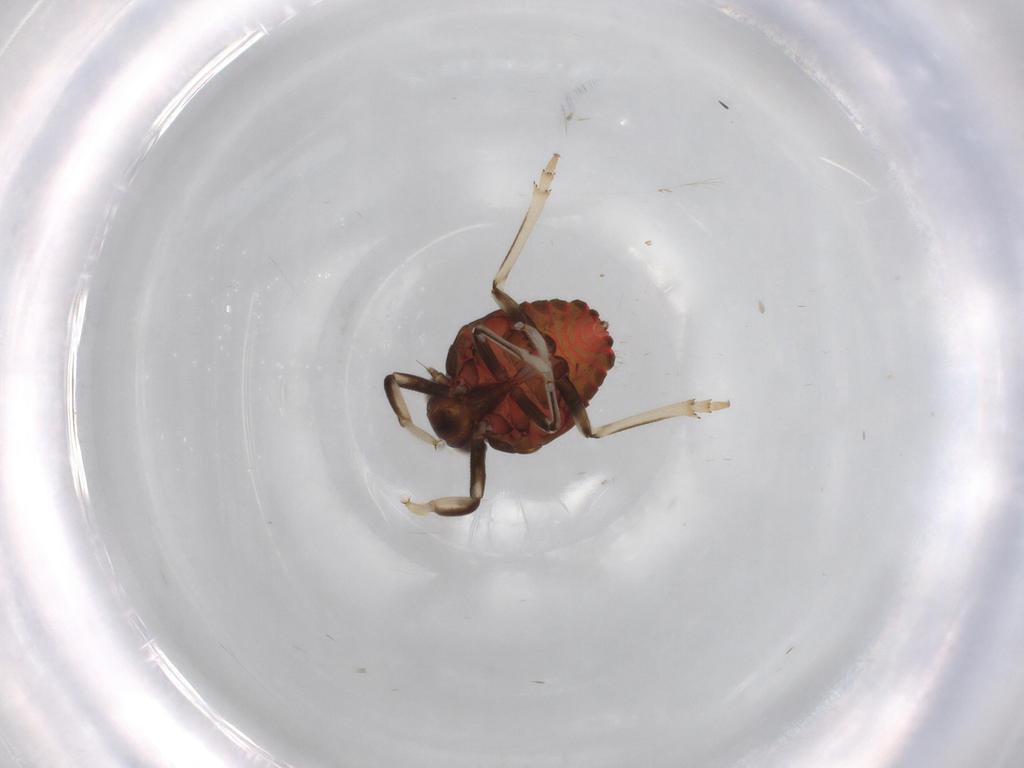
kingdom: Animalia
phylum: Arthropoda
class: Insecta
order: Hemiptera
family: Issidae
